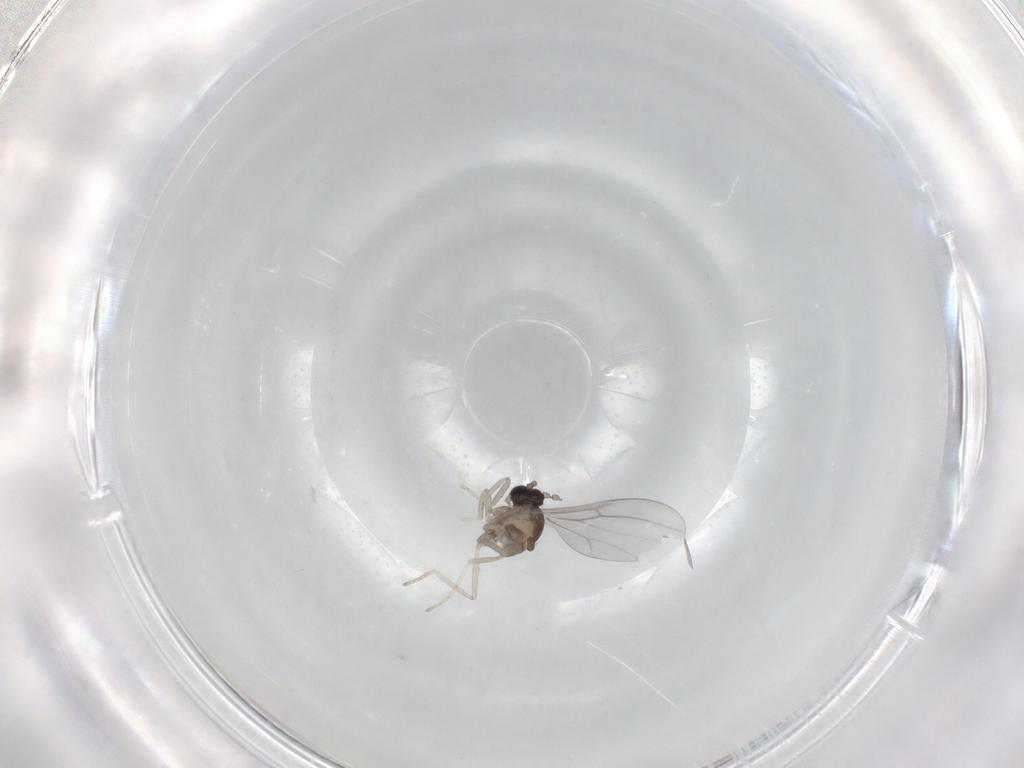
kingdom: Animalia
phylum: Arthropoda
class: Insecta
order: Diptera
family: Cecidomyiidae
